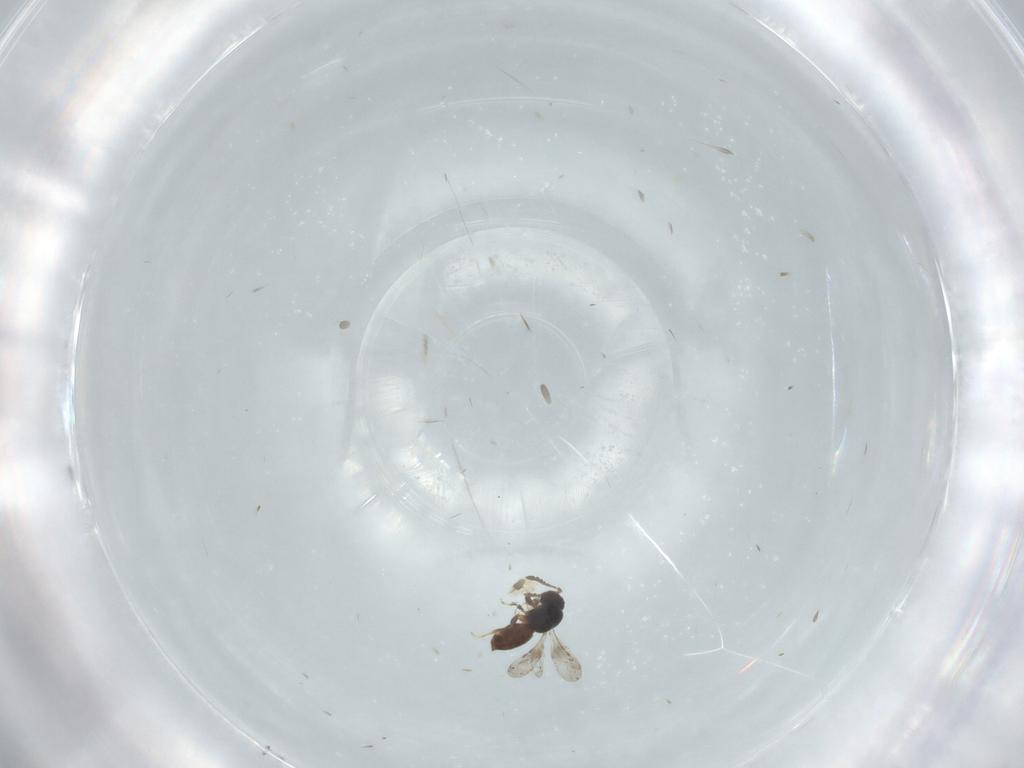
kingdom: Animalia
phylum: Arthropoda
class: Insecta
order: Hymenoptera
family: Platygastridae
